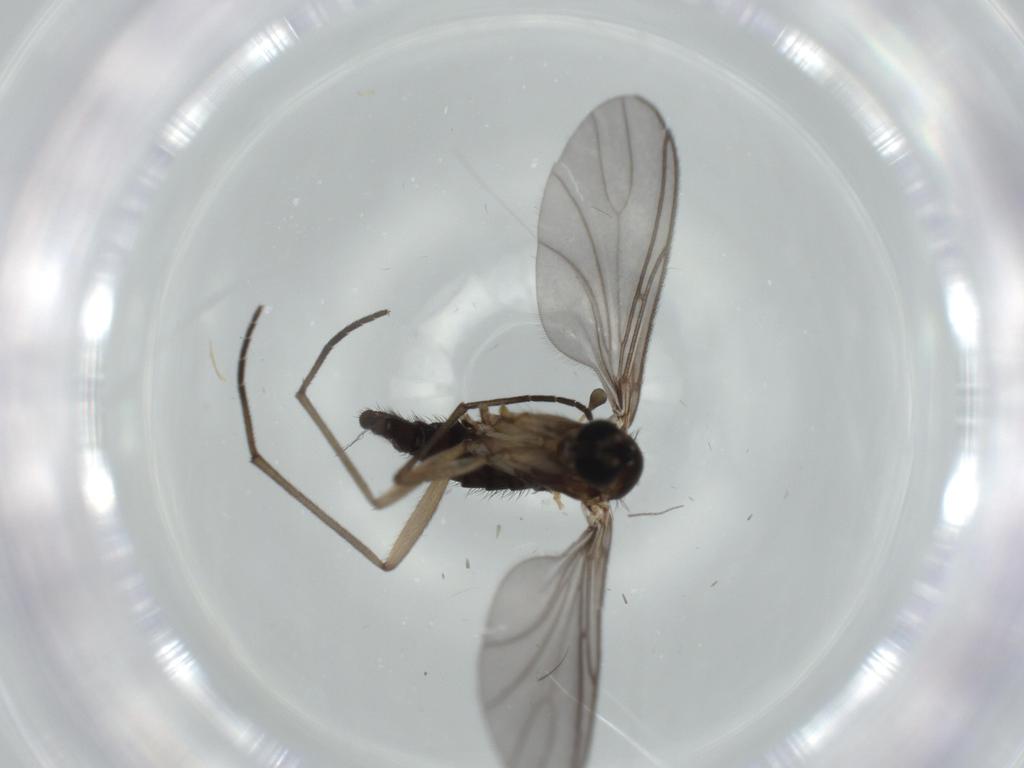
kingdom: Animalia
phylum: Arthropoda
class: Insecta
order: Diptera
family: Sciaridae
